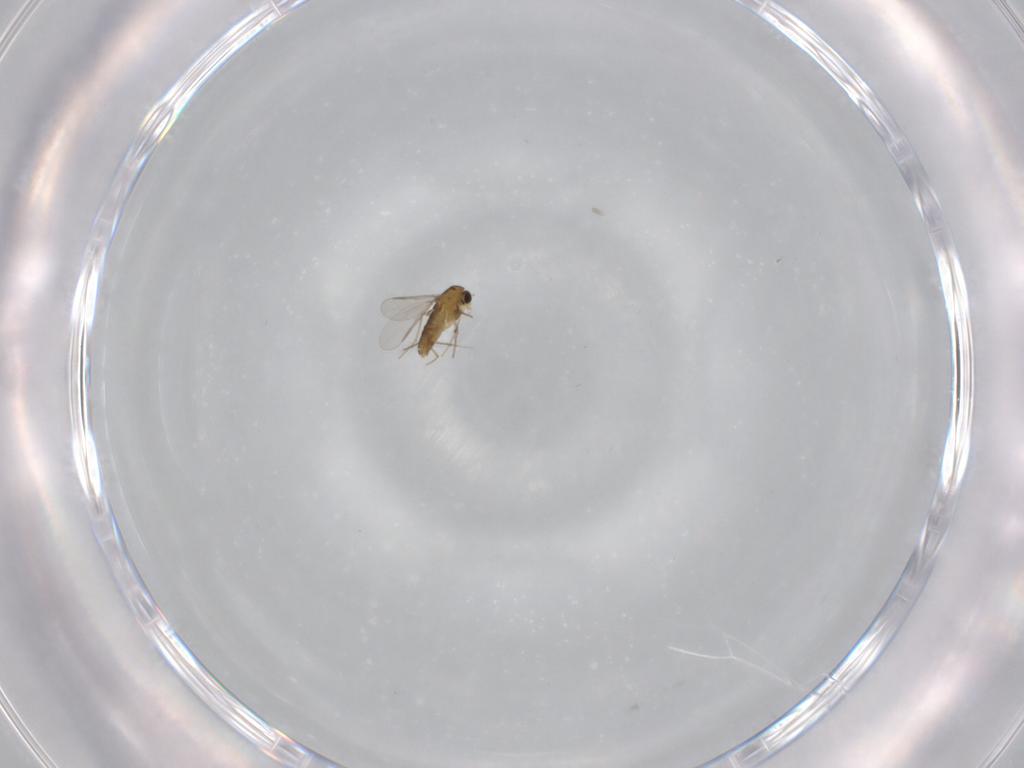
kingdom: Animalia
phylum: Arthropoda
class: Insecta
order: Diptera
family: Chironomidae
